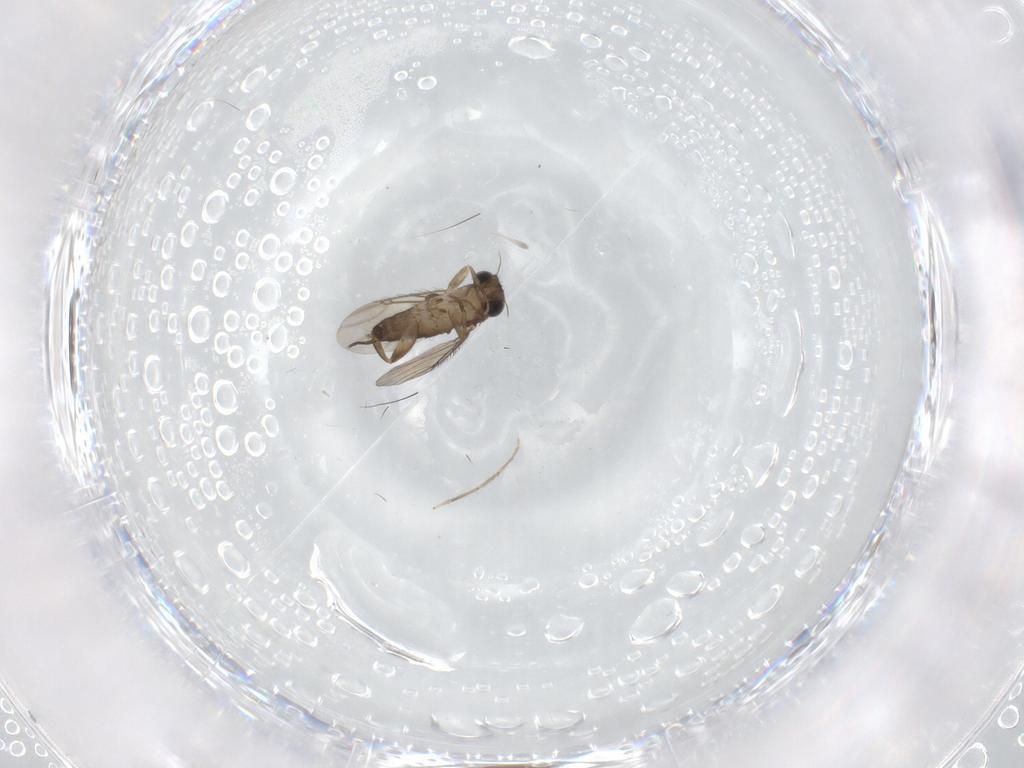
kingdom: Animalia
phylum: Arthropoda
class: Insecta
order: Diptera
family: Phoridae
